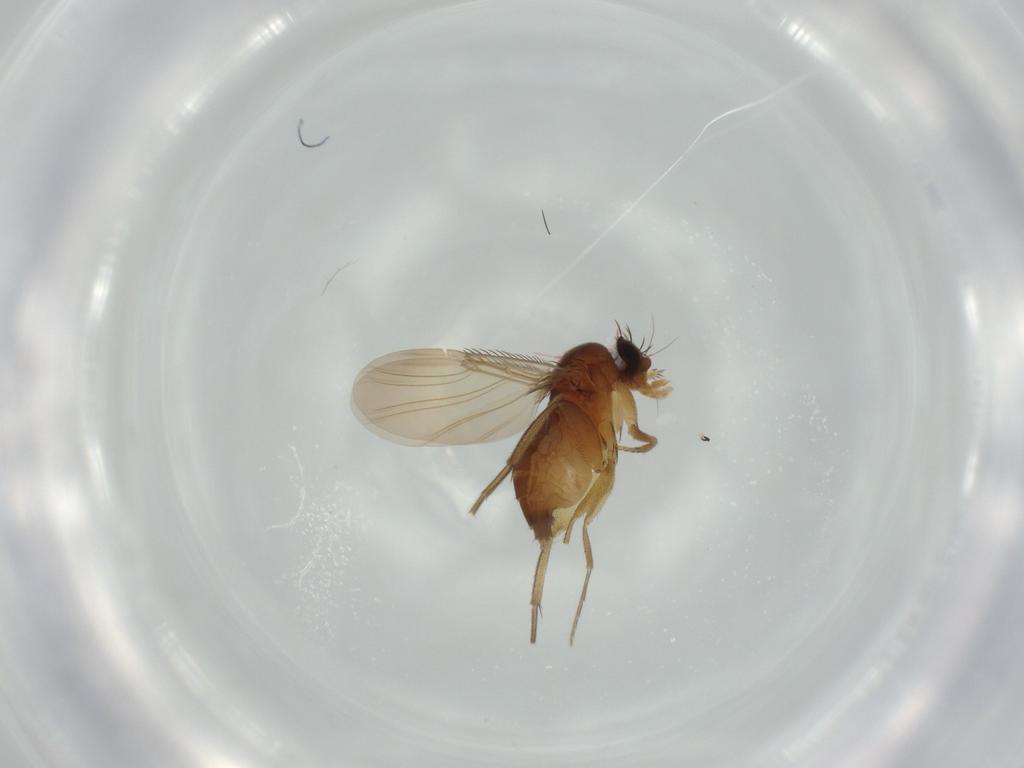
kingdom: Animalia
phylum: Arthropoda
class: Insecta
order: Diptera
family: Phoridae
